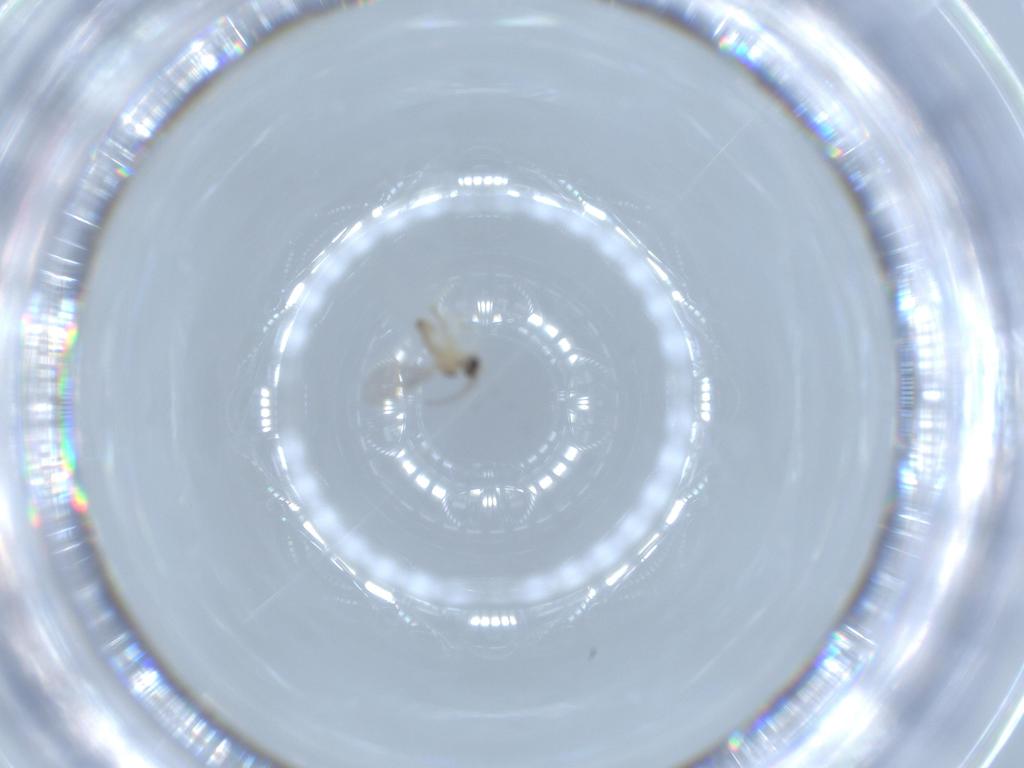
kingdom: Animalia
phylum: Arthropoda
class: Insecta
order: Diptera
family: Cecidomyiidae
